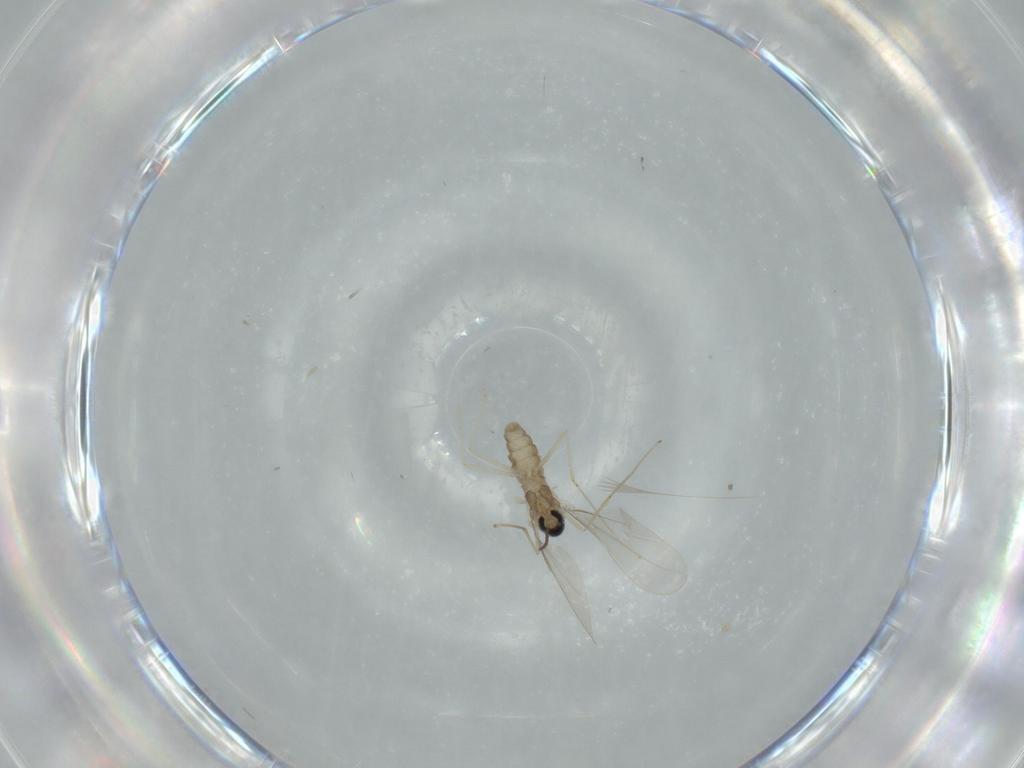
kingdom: Animalia
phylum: Arthropoda
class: Insecta
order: Diptera
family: Cecidomyiidae
